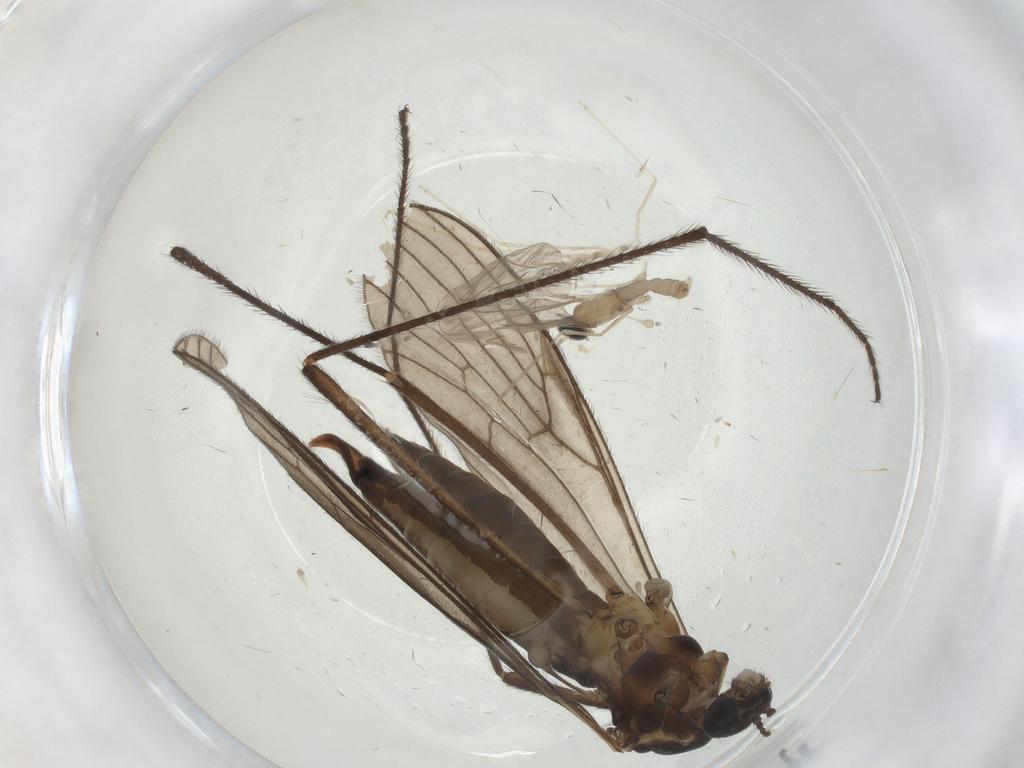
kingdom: Animalia
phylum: Arthropoda
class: Insecta
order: Diptera
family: Limoniidae
